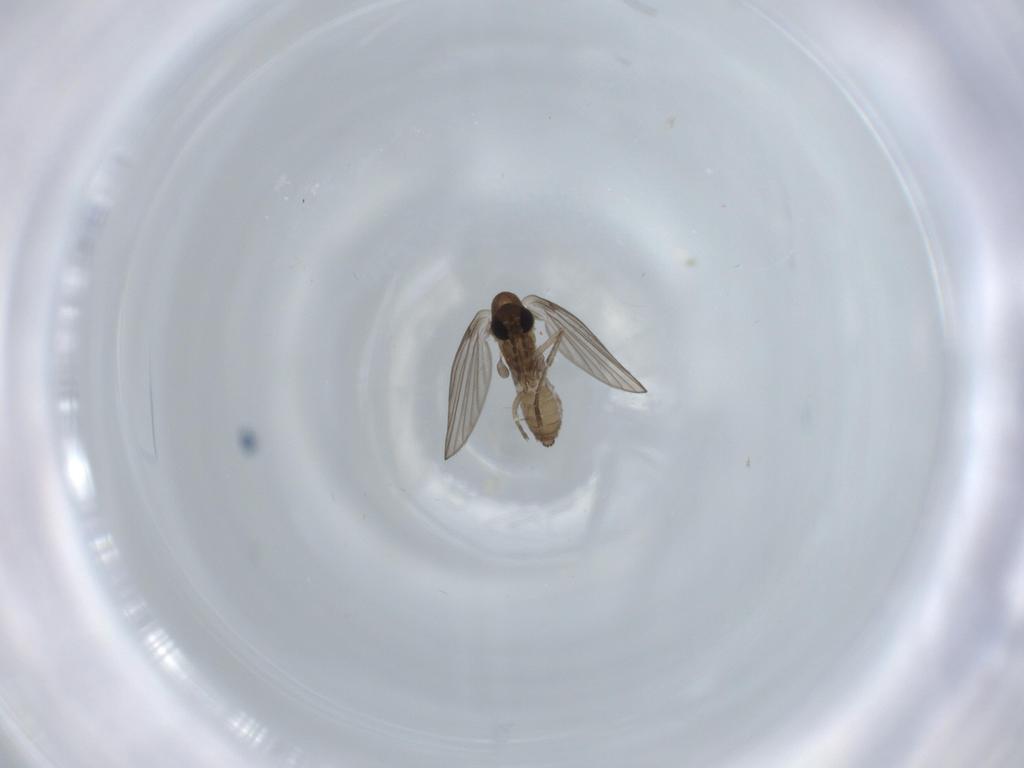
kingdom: Animalia
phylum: Arthropoda
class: Insecta
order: Diptera
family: Psychodidae
